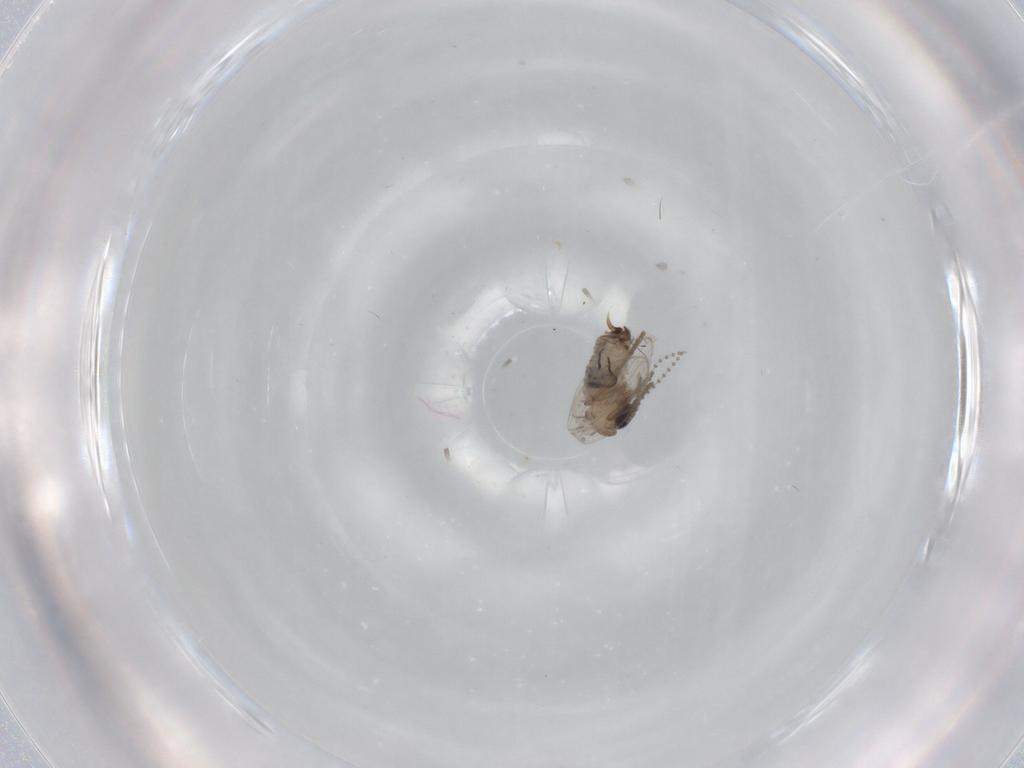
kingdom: Animalia
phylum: Arthropoda
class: Insecta
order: Diptera
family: Psychodidae
